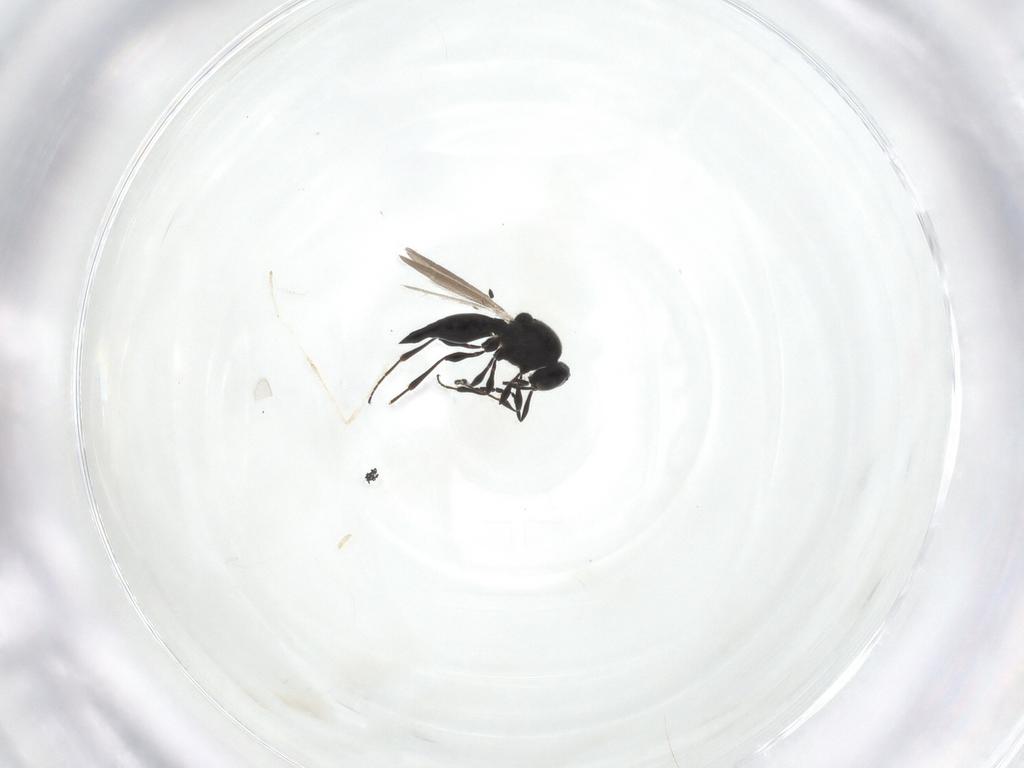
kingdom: Animalia
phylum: Arthropoda
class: Insecta
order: Hymenoptera
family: Platygastridae
